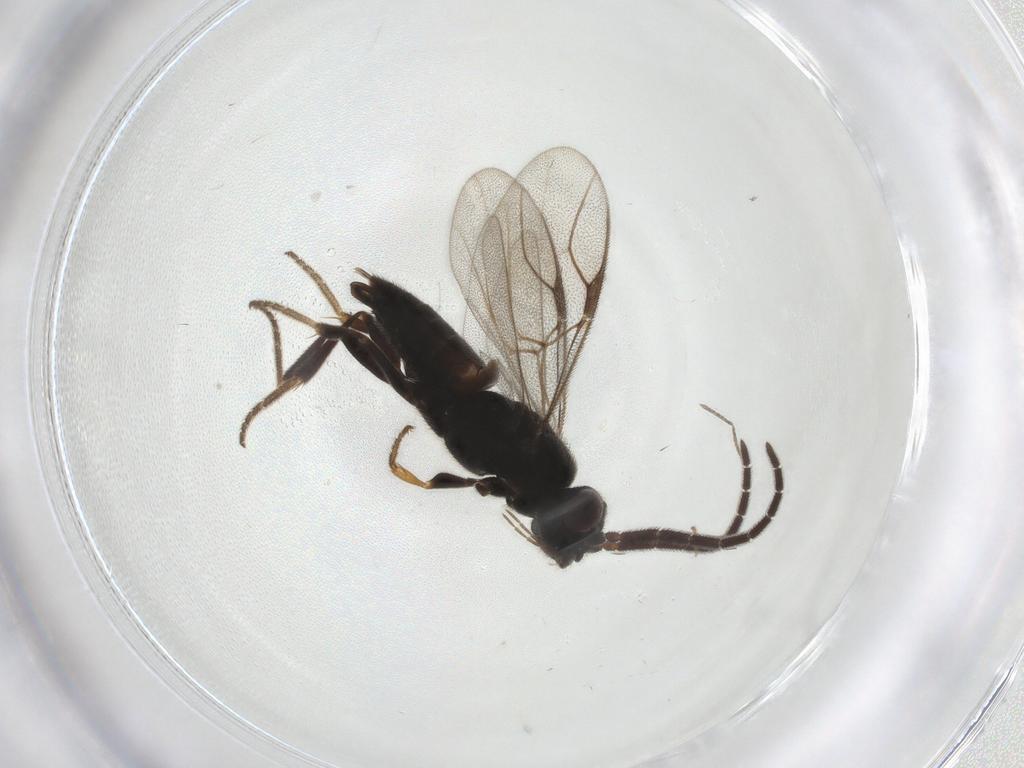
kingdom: Animalia
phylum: Arthropoda
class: Insecta
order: Hymenoptera
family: Dryinidae
